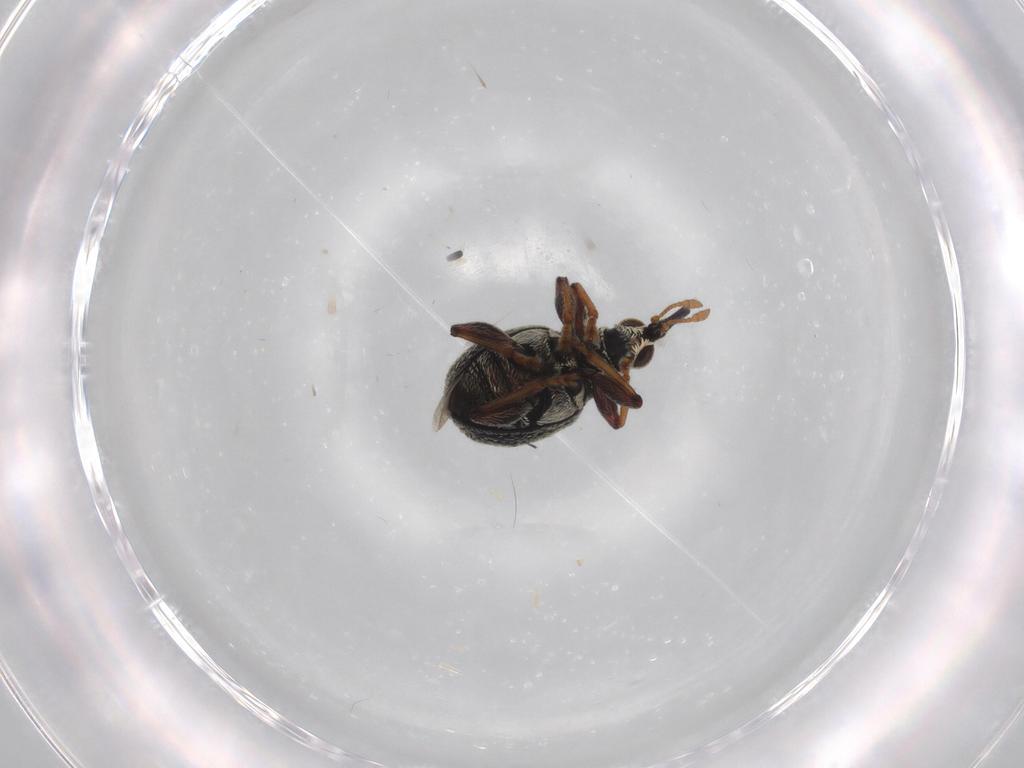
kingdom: Animalia
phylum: Arthropoda
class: Insecta
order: Coleoptera
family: Brentidae
